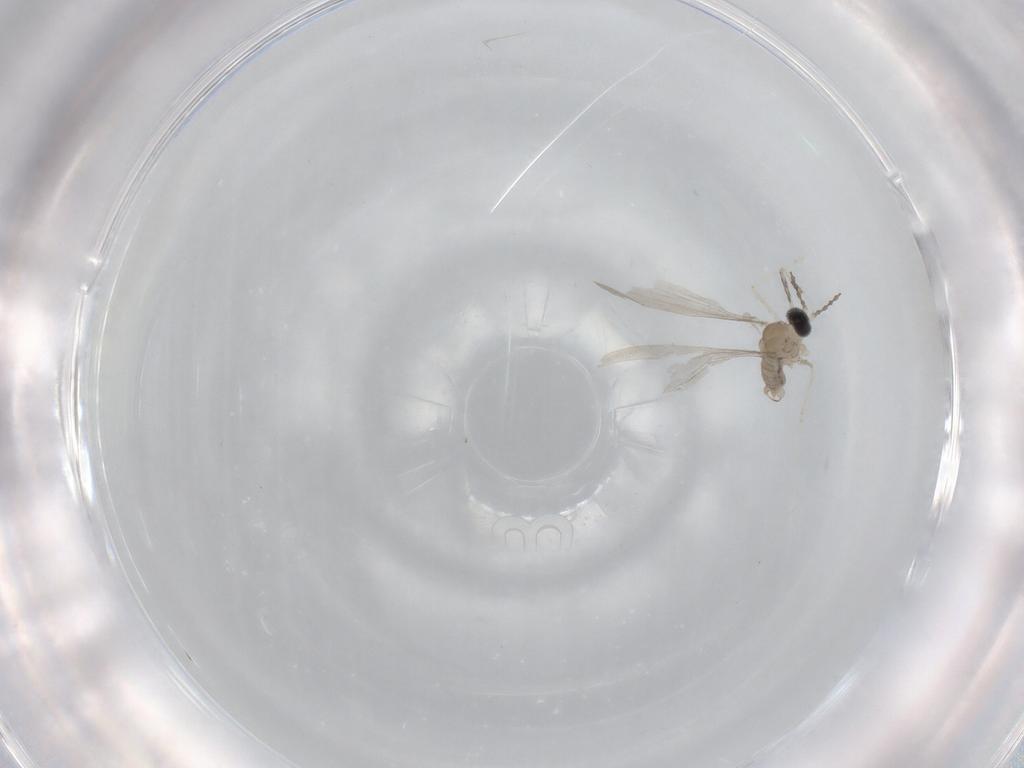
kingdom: Animalia
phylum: Arthropoda
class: Insecta
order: Diptera
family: Cecidomyiidae
